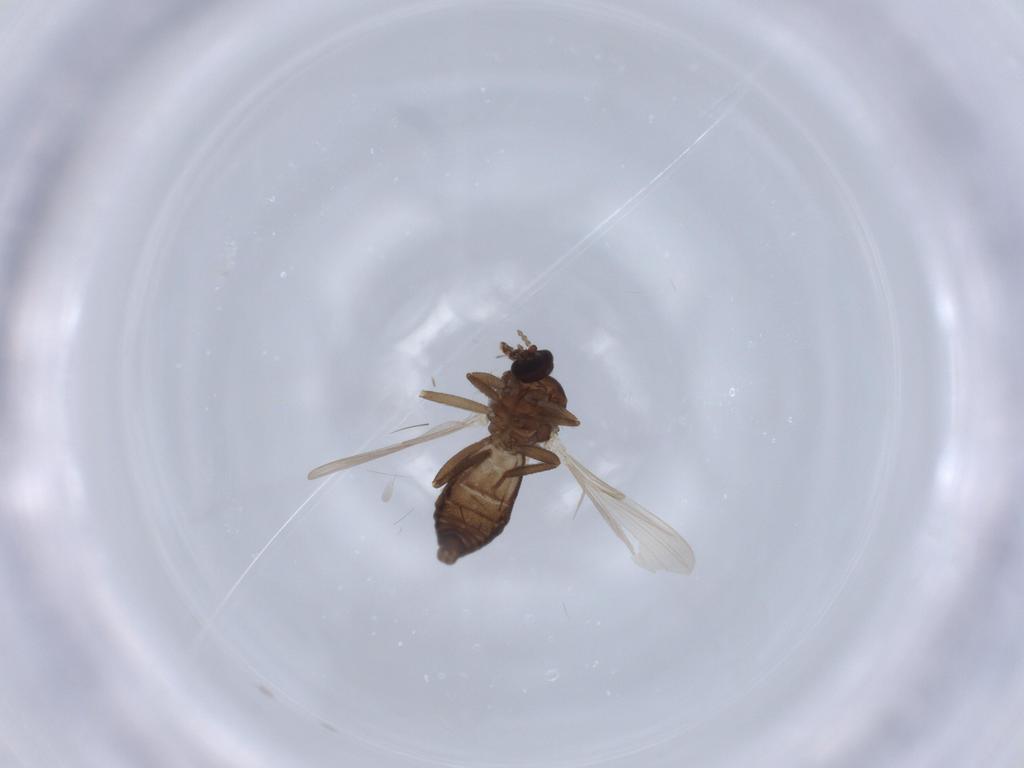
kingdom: Animalia
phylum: Arthropoda
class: Insecta
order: Diptera
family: Ceratopogonidae
